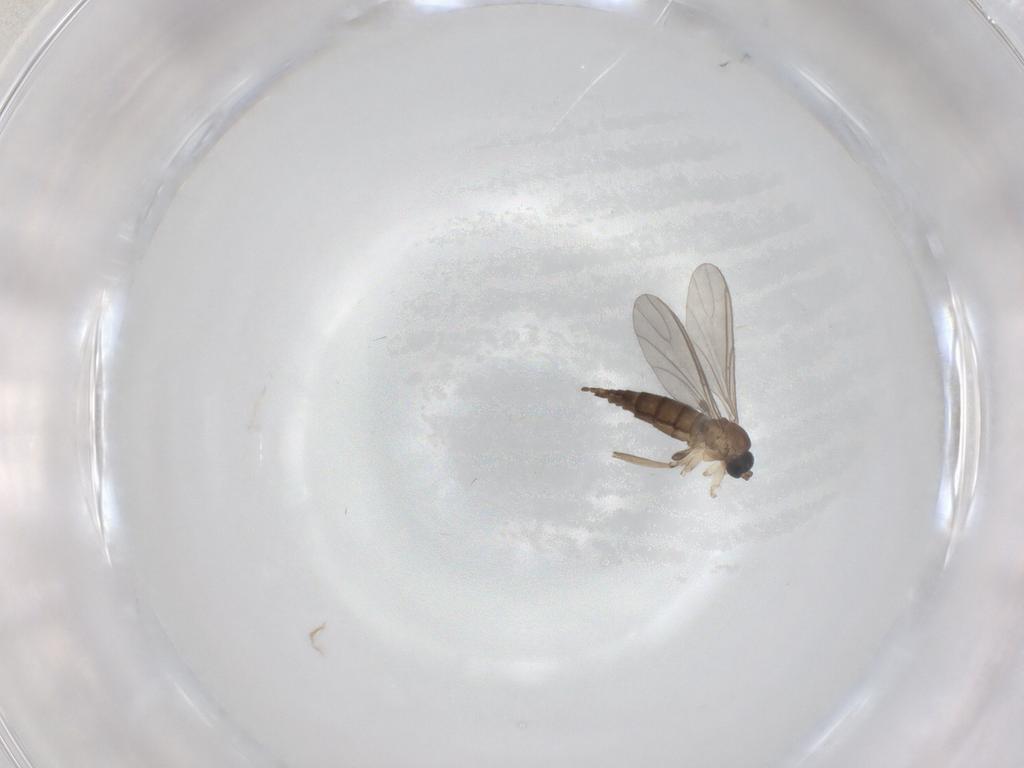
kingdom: Animalia
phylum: Arthropoda
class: Insecta
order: Diptera
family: Sciaridae
